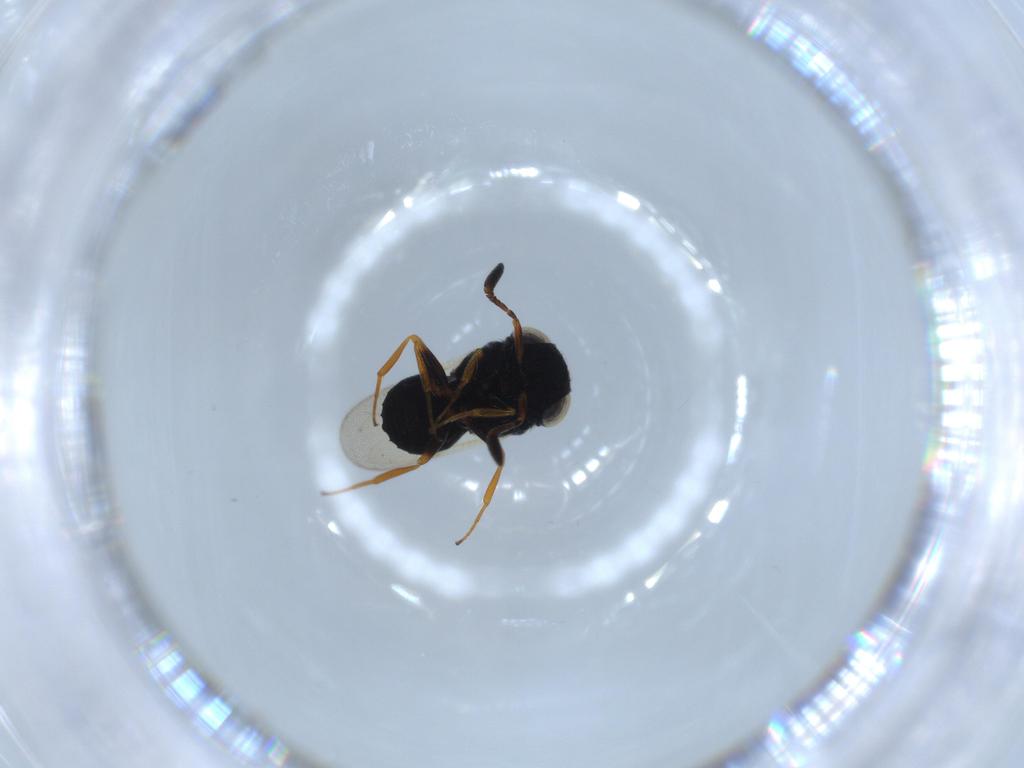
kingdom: Animalia
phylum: Arthropoda
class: Insecta
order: Hymenoptera
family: Scelionidae
